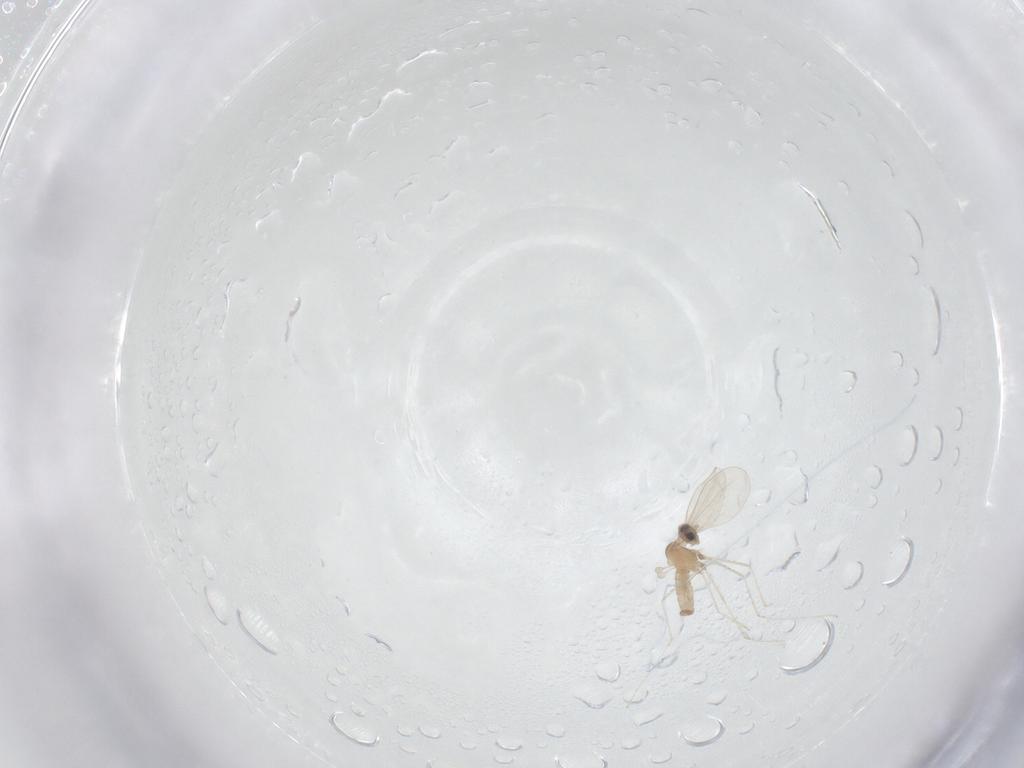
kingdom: Animalia
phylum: Arthropoda
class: Insecta
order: Diptera
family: Cecidomyiidae
